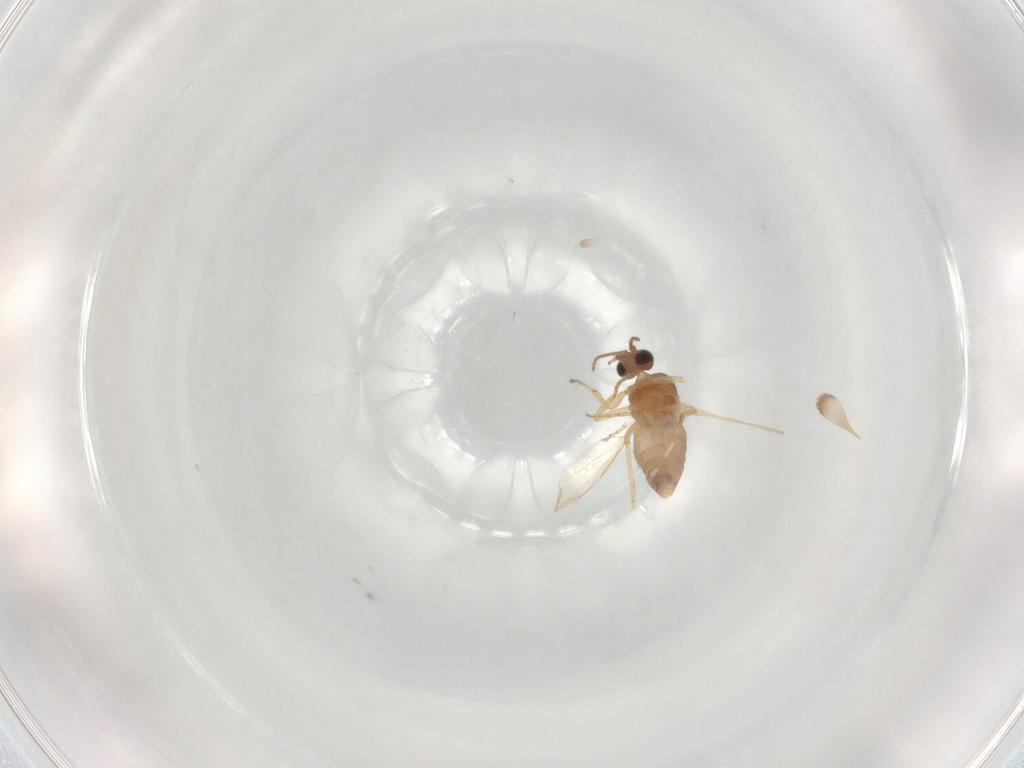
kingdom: Animalia
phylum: Arthropoda
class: Insecta
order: Diptera
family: Ceratopogonidae
